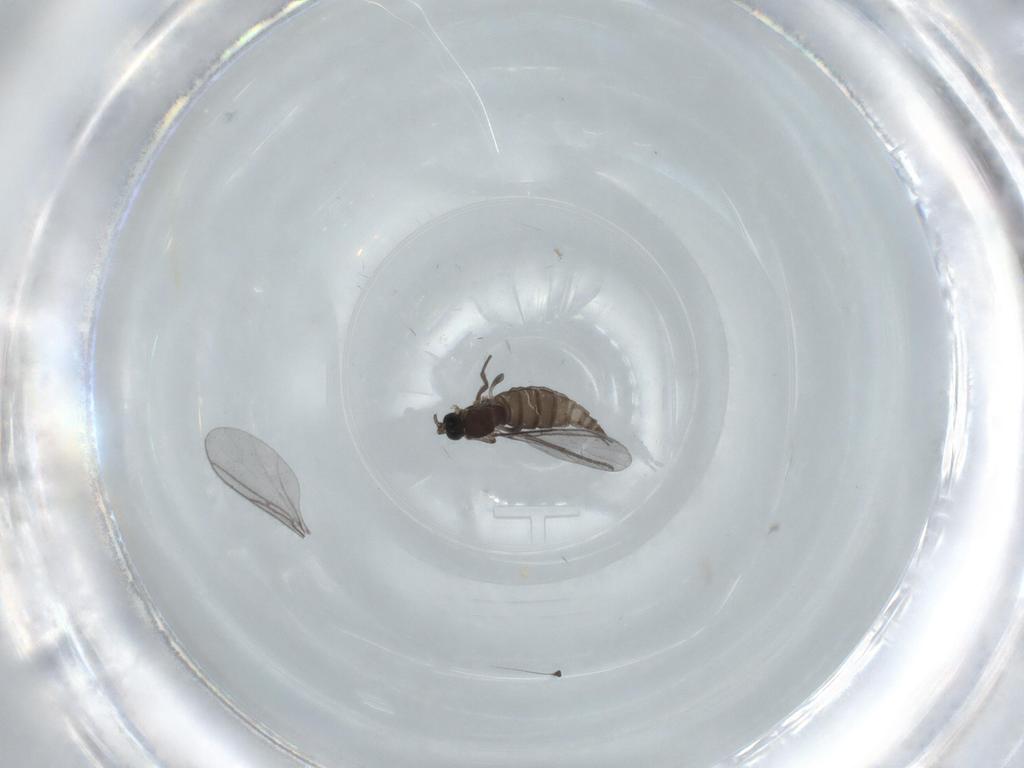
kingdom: Animalia
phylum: Arthropoda
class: Insecta
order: Diptera
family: Dolichopodidae
